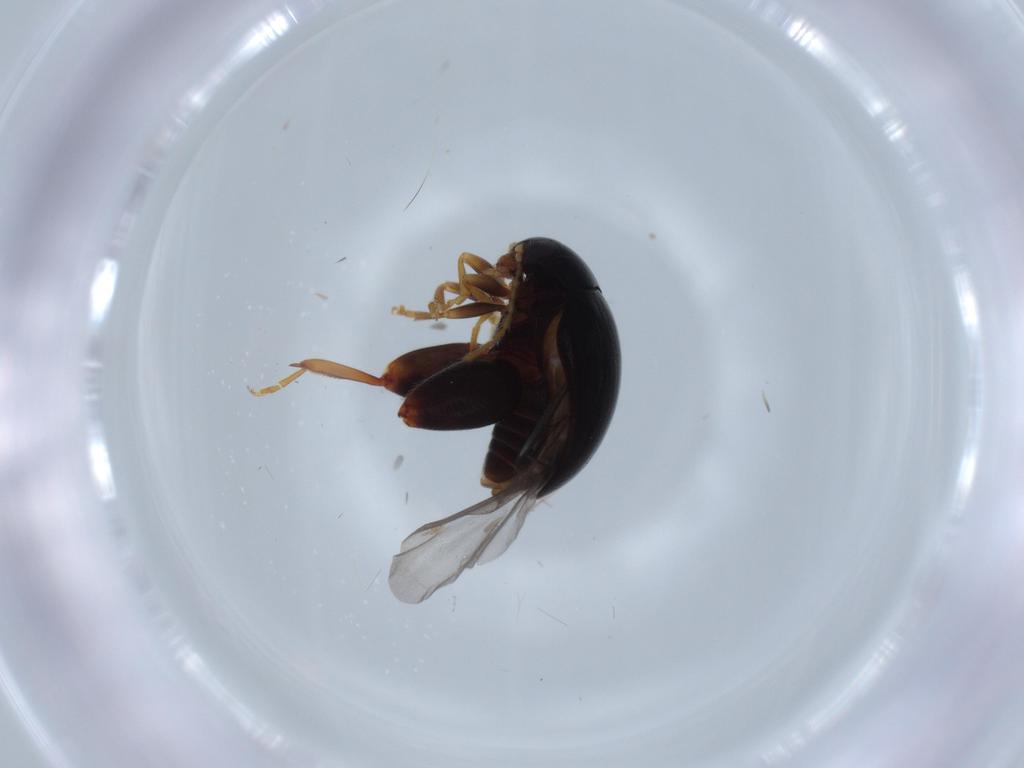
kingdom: Animalia
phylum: Arthropoda
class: Insecta
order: Coleoptera
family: Chrysomelidae
